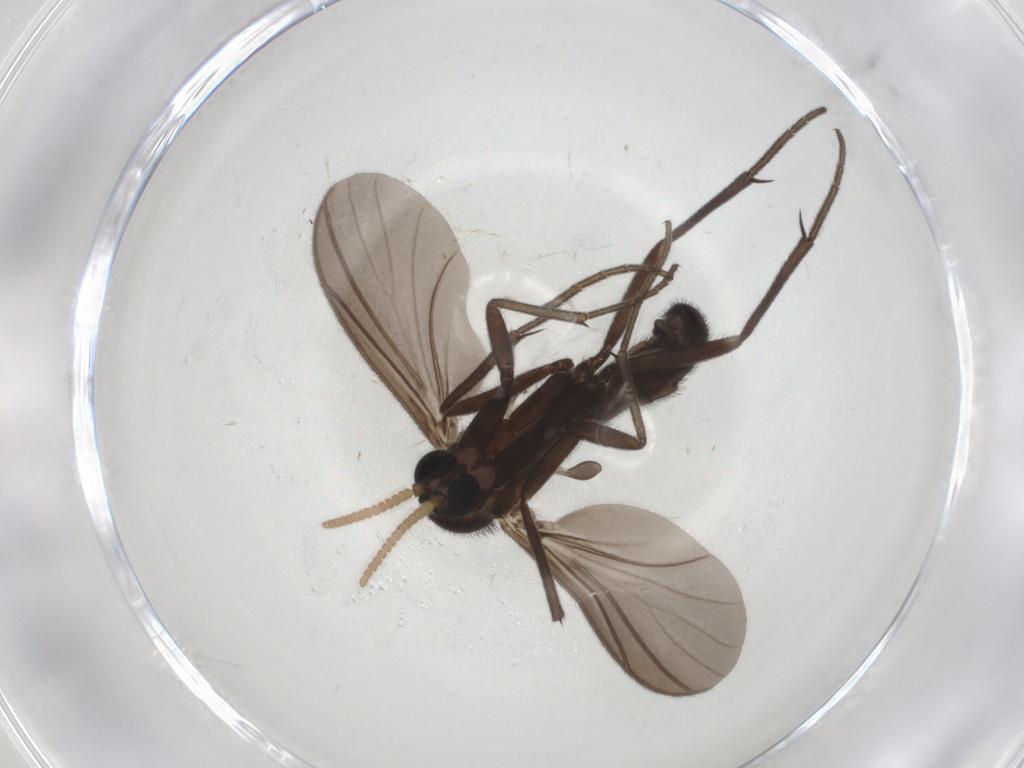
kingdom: Animalia
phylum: Arthropoda
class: Insecta
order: Diptera
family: Mycetophilidae
